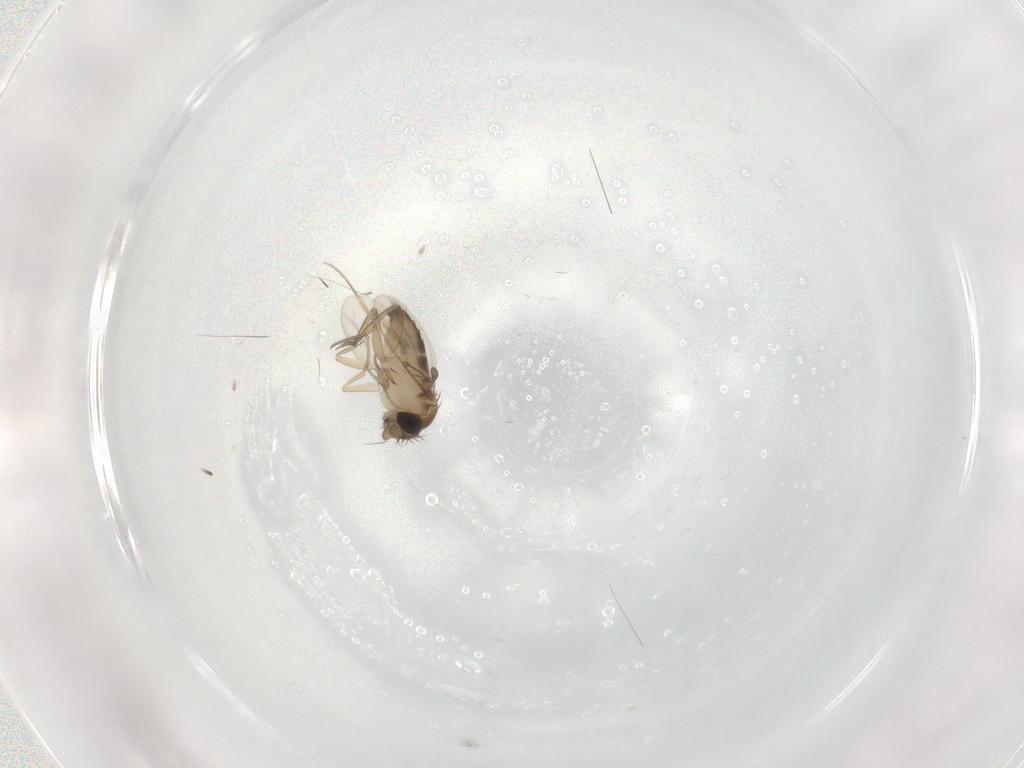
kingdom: Animalia
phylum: Arthropoda
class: Insecta
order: Diptera
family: Phoridae
